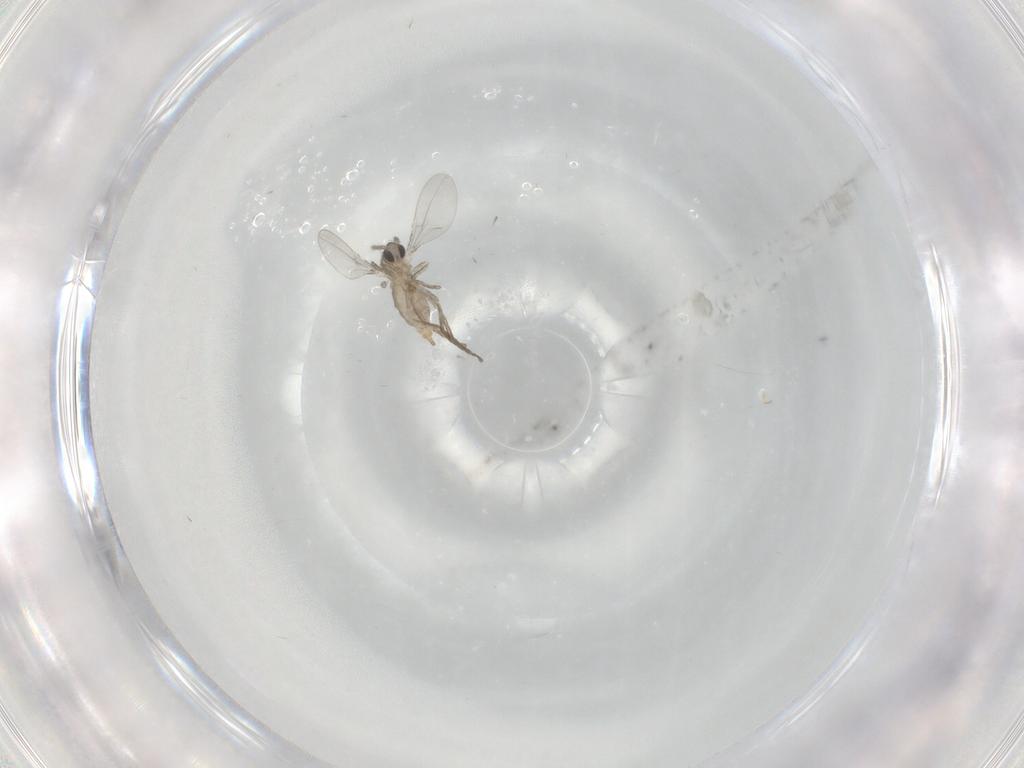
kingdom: Animalia
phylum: Arthropoda
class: Insecta
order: Diptera
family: Cecidomyiidae
